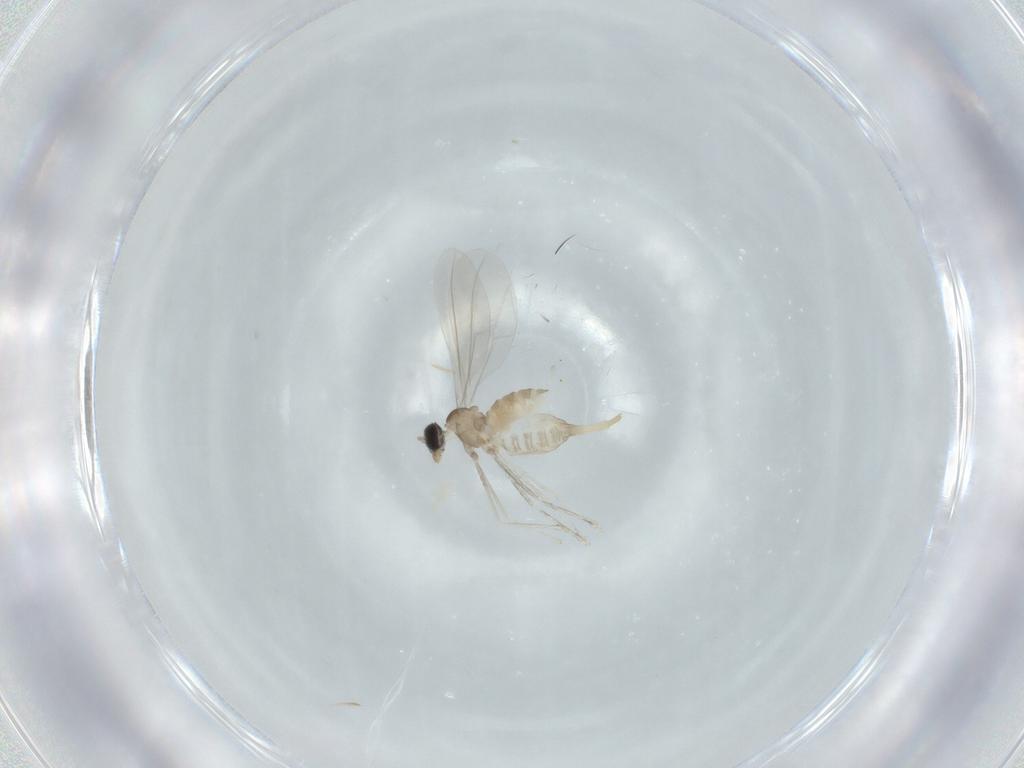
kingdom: Animalia
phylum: Arthropoda
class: Insecta
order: Diptera
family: Cecidomyiidae
